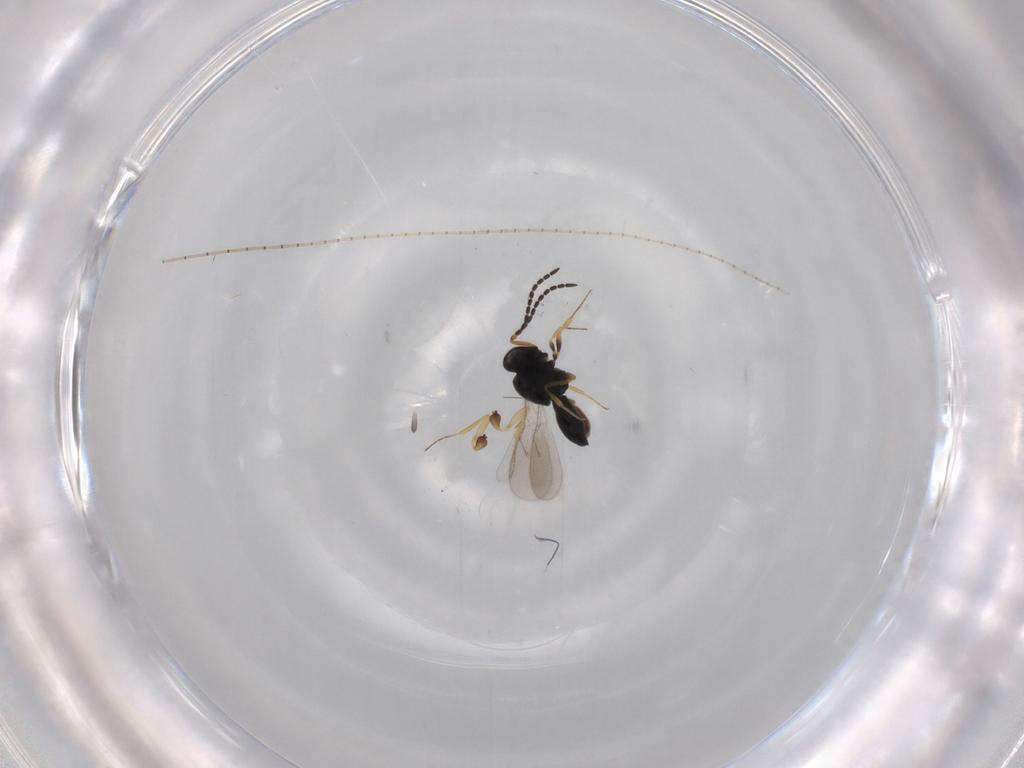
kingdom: Animalia
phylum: Arthropoda
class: Insecta
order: Hymenoptera
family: Scelionidae
